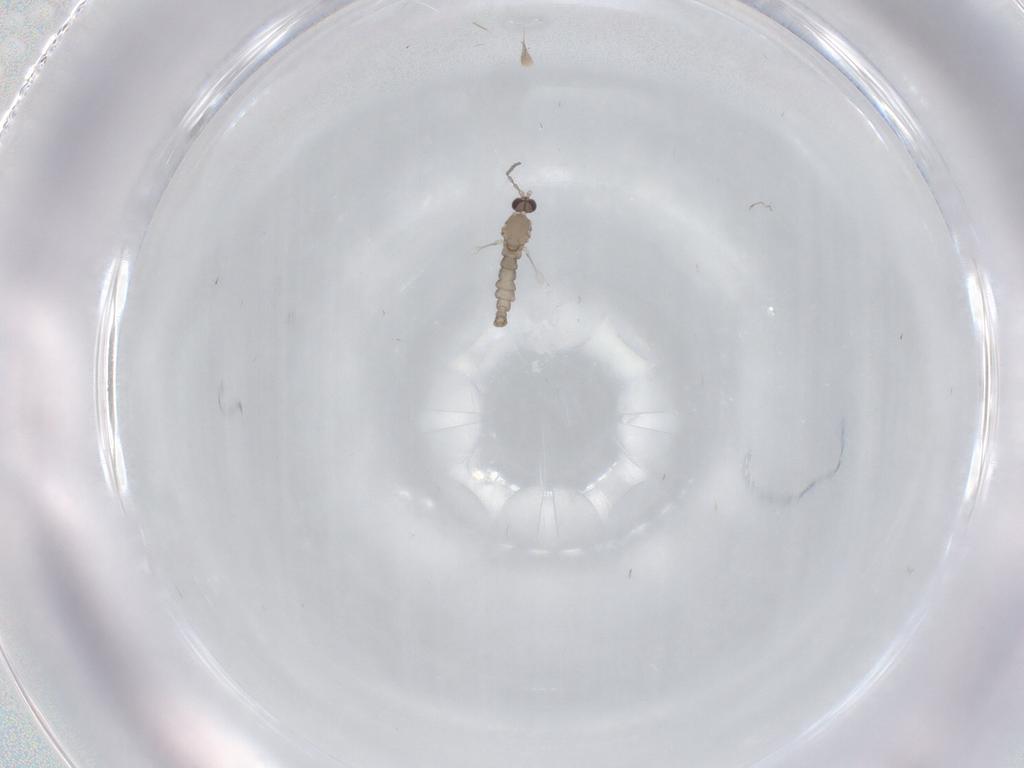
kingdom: Animalia
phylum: Arthropoda
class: Insecta
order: Diptera
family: Cecidomyiidae
